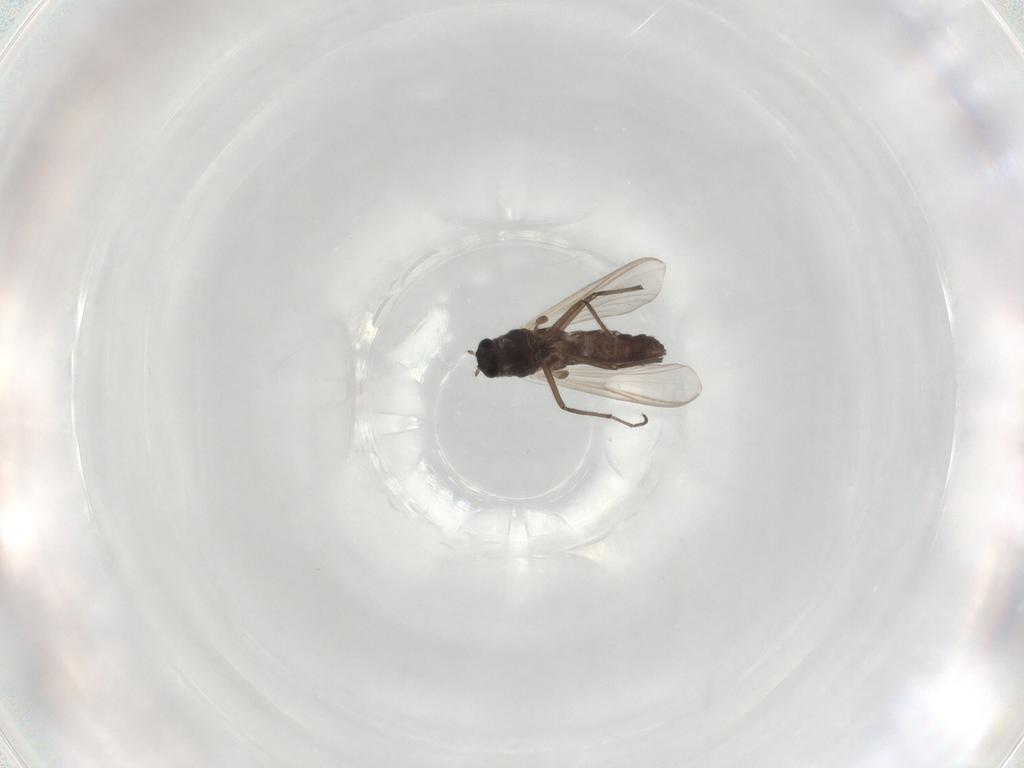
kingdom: Animalia
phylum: Arthropoda
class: Insecta
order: Diptera
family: Chironomidae
